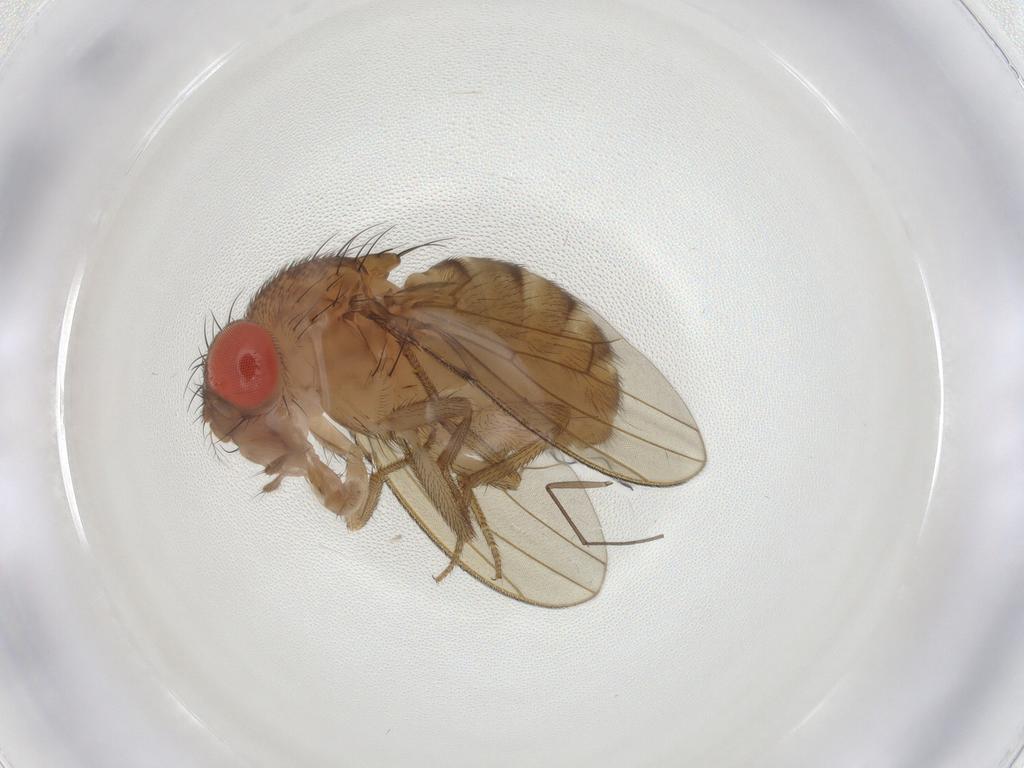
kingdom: Animalia
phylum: Arthropoda
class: Insecta
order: Diptera
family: Drosophilidae
